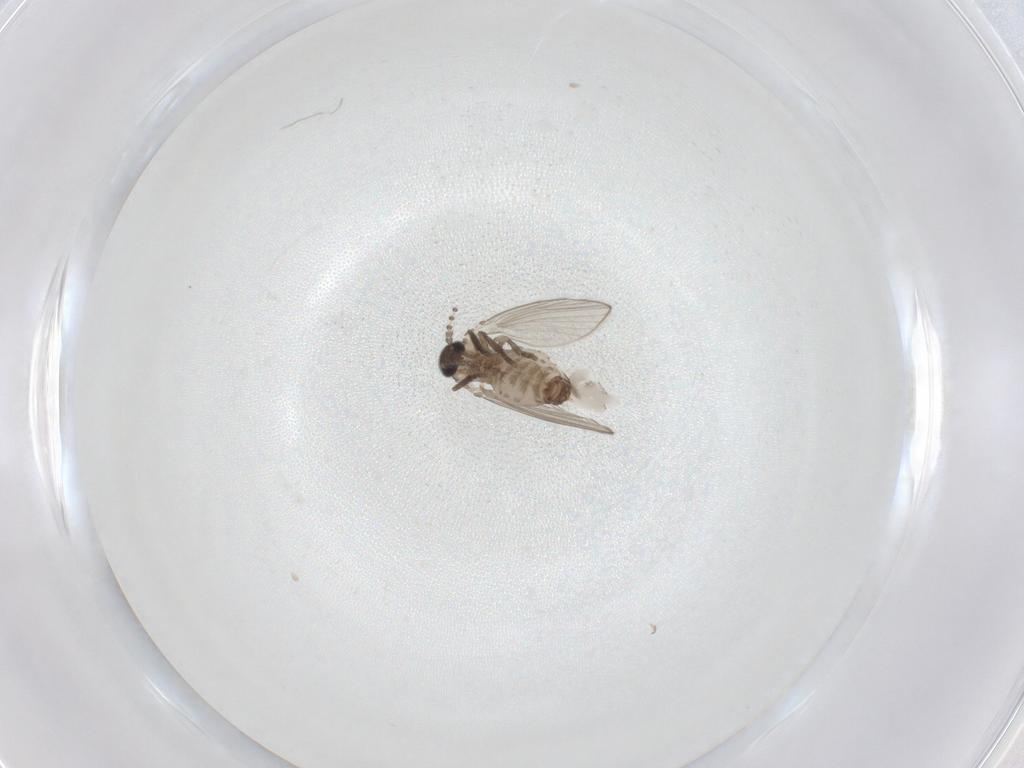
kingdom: Animalia
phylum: Arthropoda
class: Insecta
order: Diptera
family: Psychodidae
